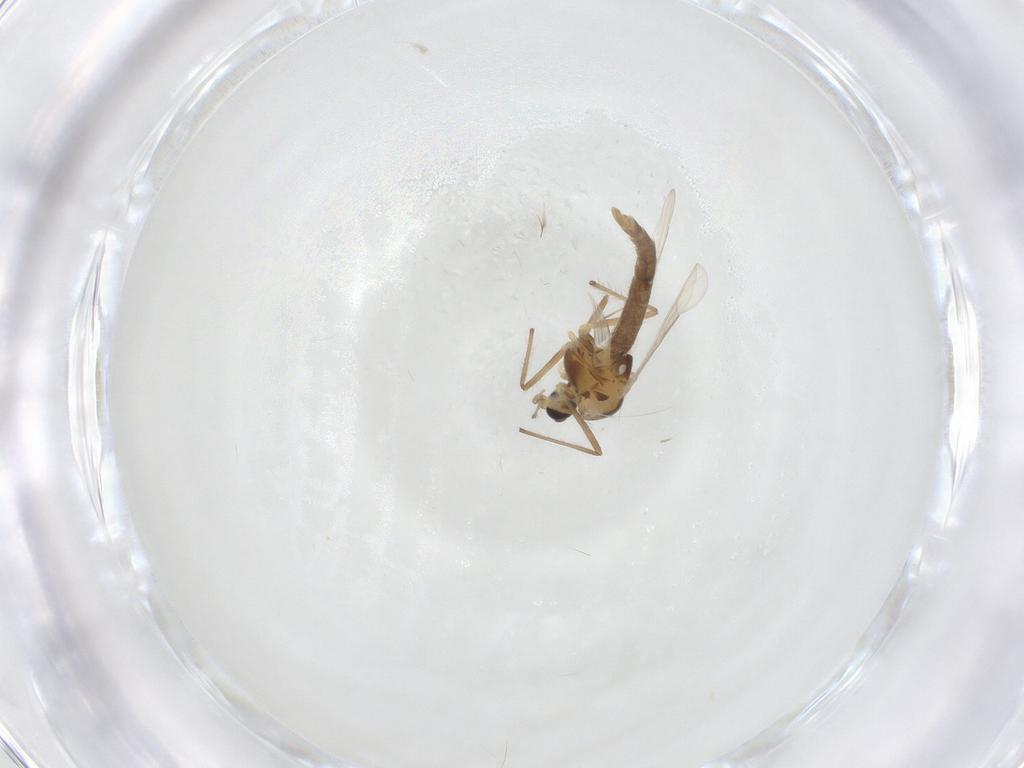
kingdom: Animalia
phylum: Arthropoda
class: Insecta
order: Diptera
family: Chironomidae
